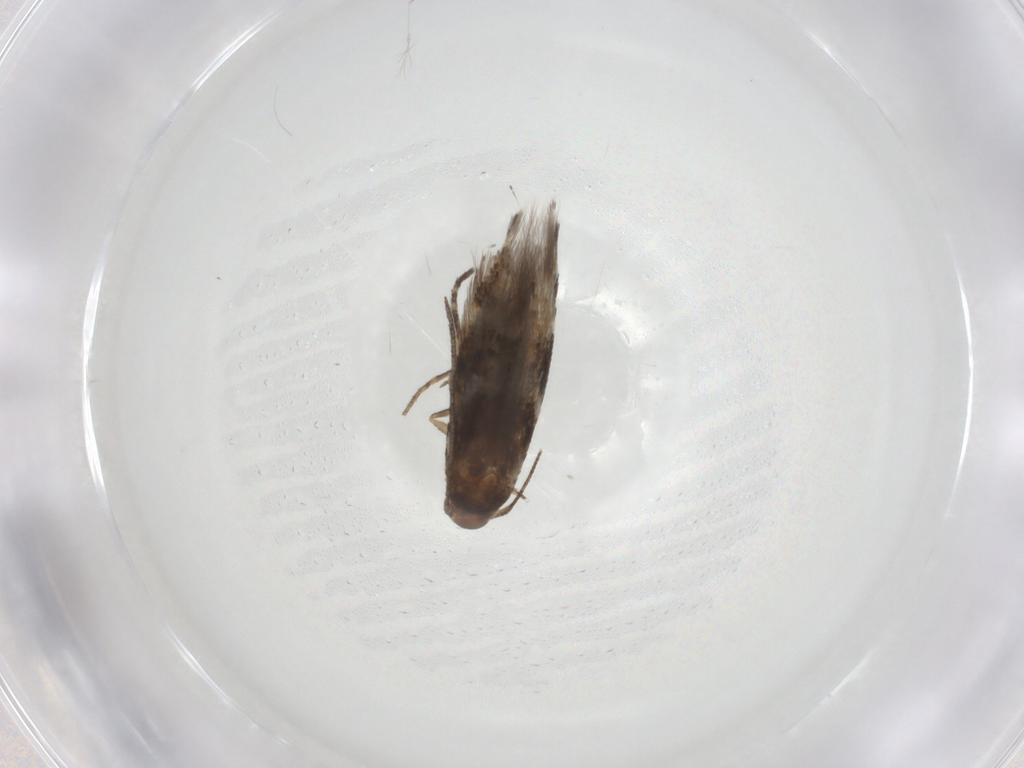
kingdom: Animalia
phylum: Arthropoda
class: Insecta
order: Lepidoptera
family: Momphidae
